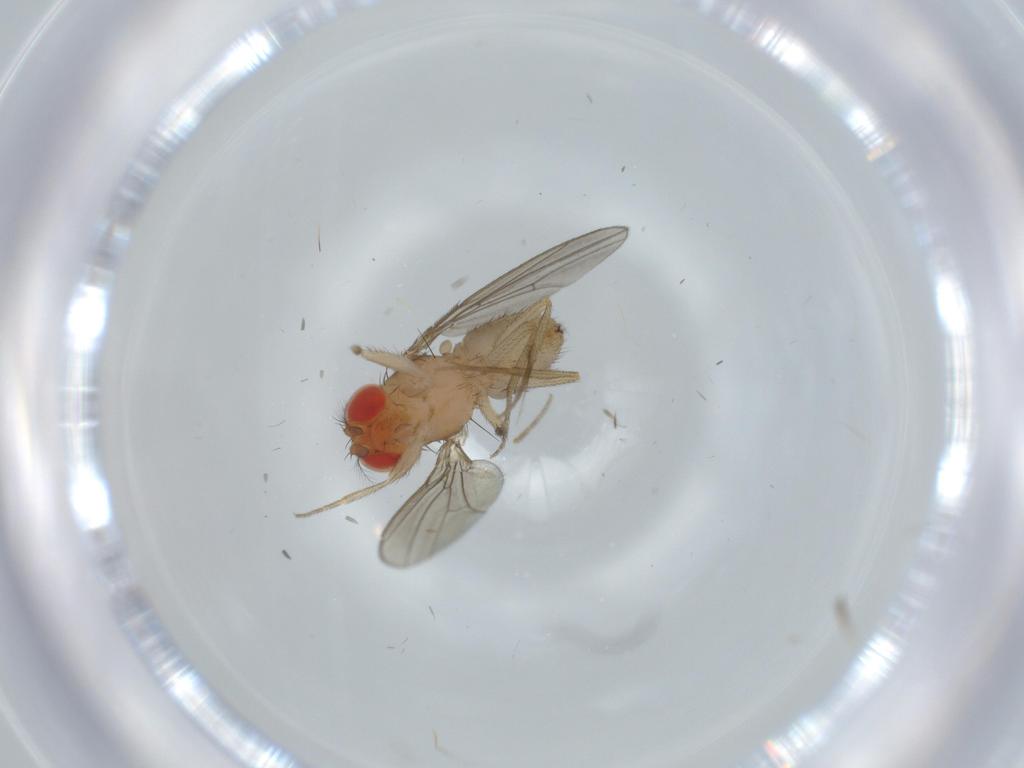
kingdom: Animalia
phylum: Arthropoda
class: Insecta
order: Diptera
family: Drosophilidae
